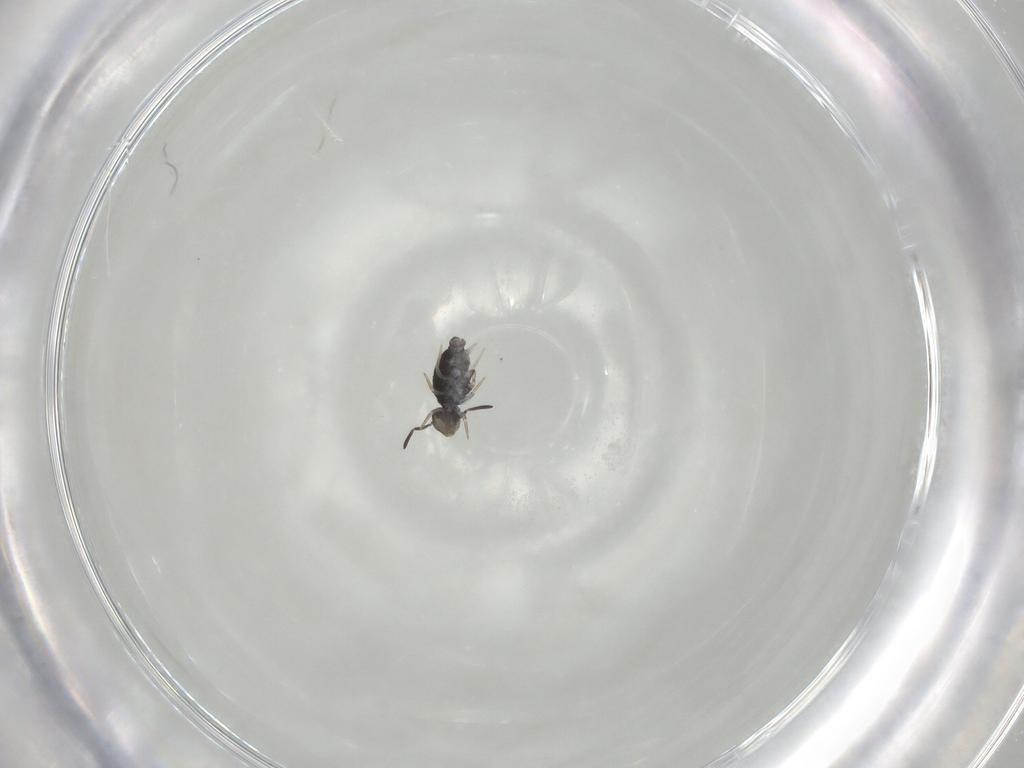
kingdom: Animalia
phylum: Arthropoda
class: Collembola
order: Symphypleona
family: Katiannidae
